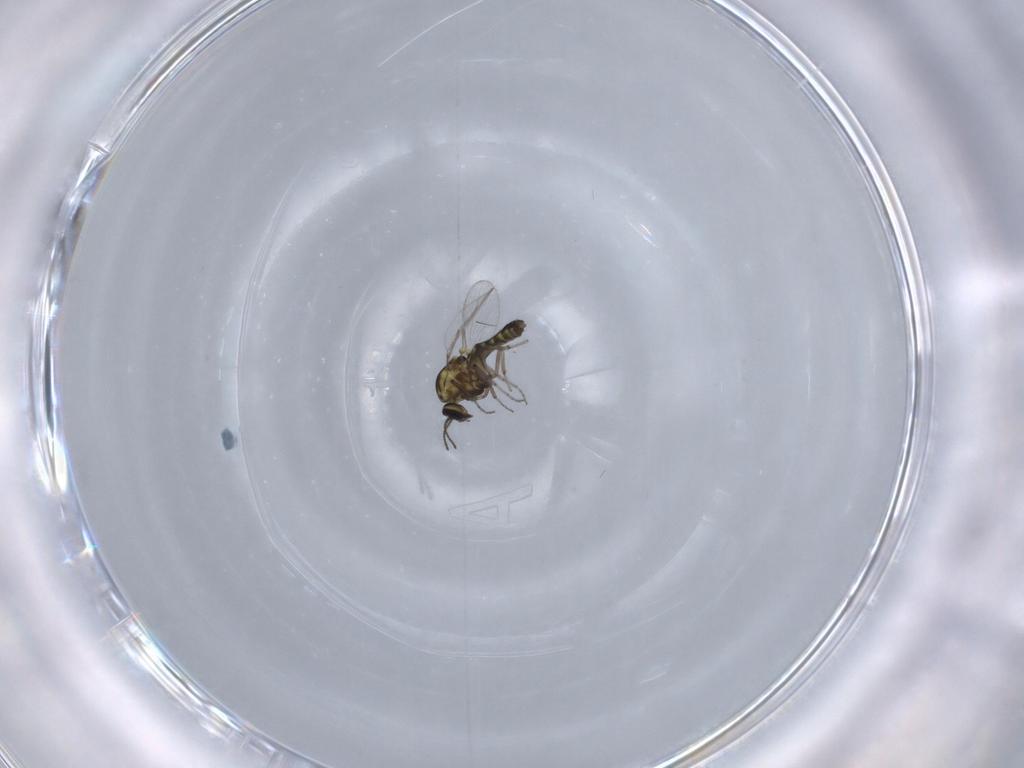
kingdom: Animalia
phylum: Arthropoda
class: Insecta
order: Diptera
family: Ceratopogonidae
